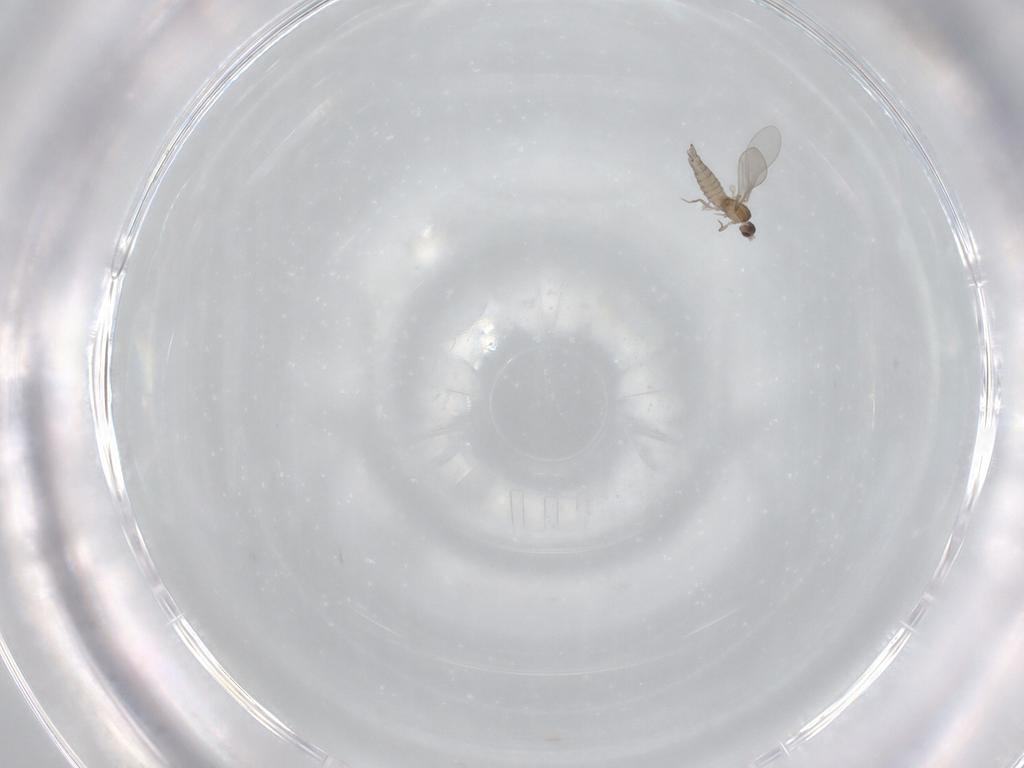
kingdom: Animalia
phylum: Arthropoda
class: Insecta
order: Diptera
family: Cecidomyiidae
